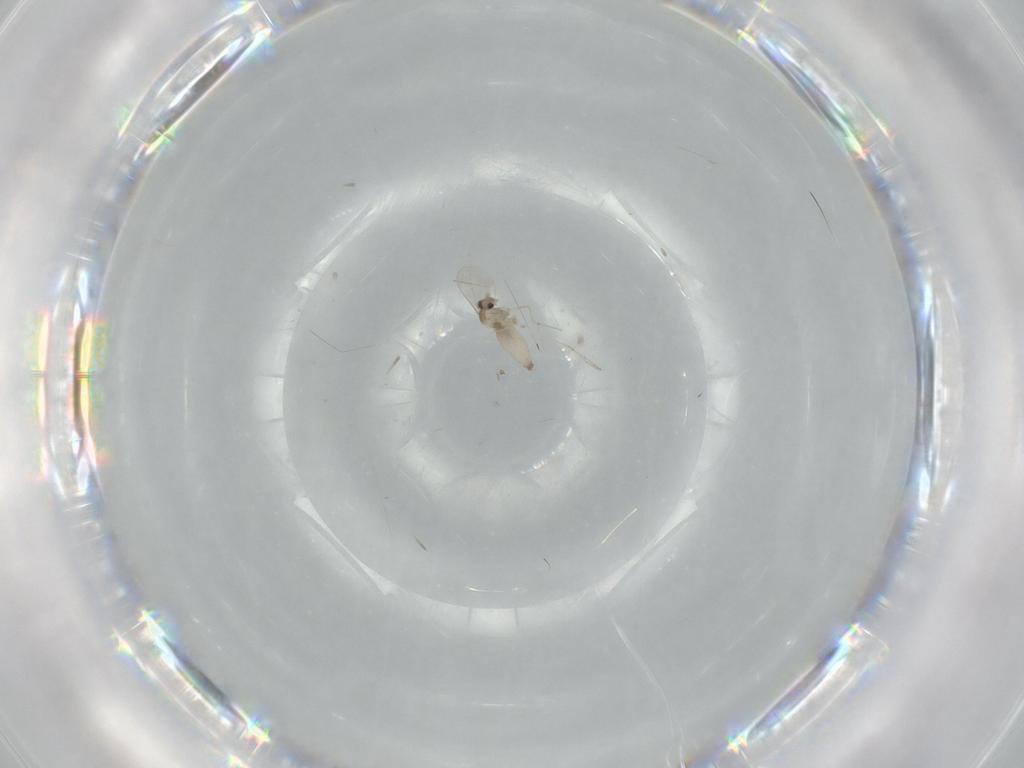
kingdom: Animalia
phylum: Arthropoda
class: Insecta
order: Diptera
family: Cecidomyiidae
